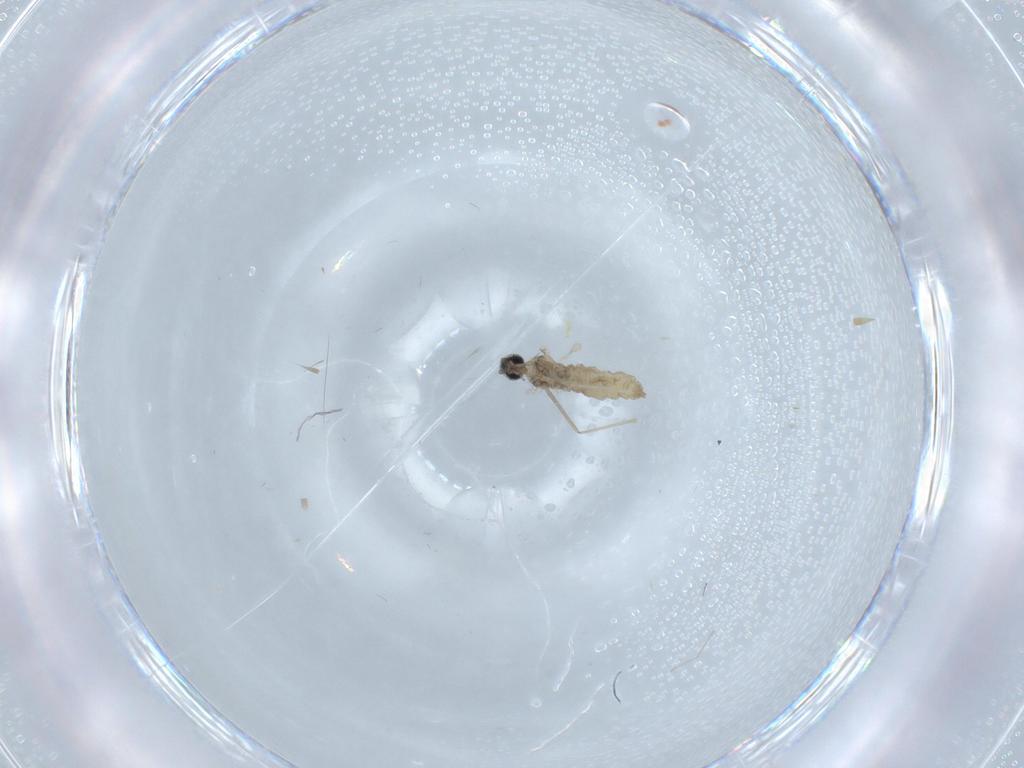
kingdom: Animalia
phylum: Arthropoda
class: Insecta
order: Diptera
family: Cecidomyiidae
